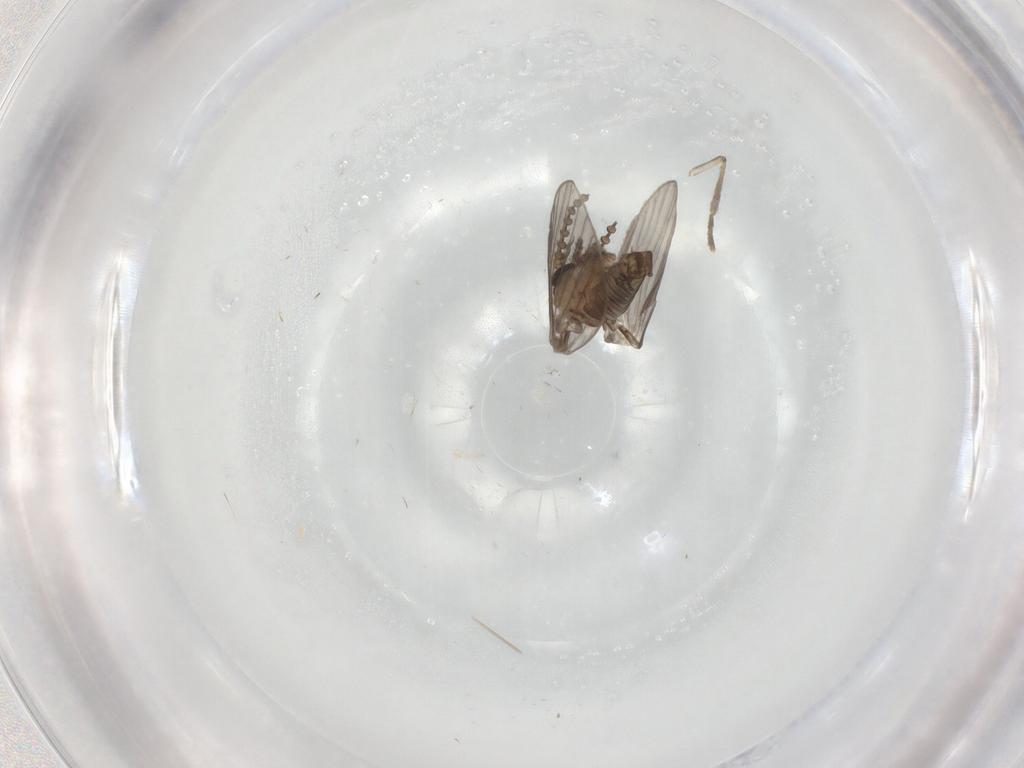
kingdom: Animalia
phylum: Arthropoda
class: Insecta
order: Diptera
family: Psychodidae
